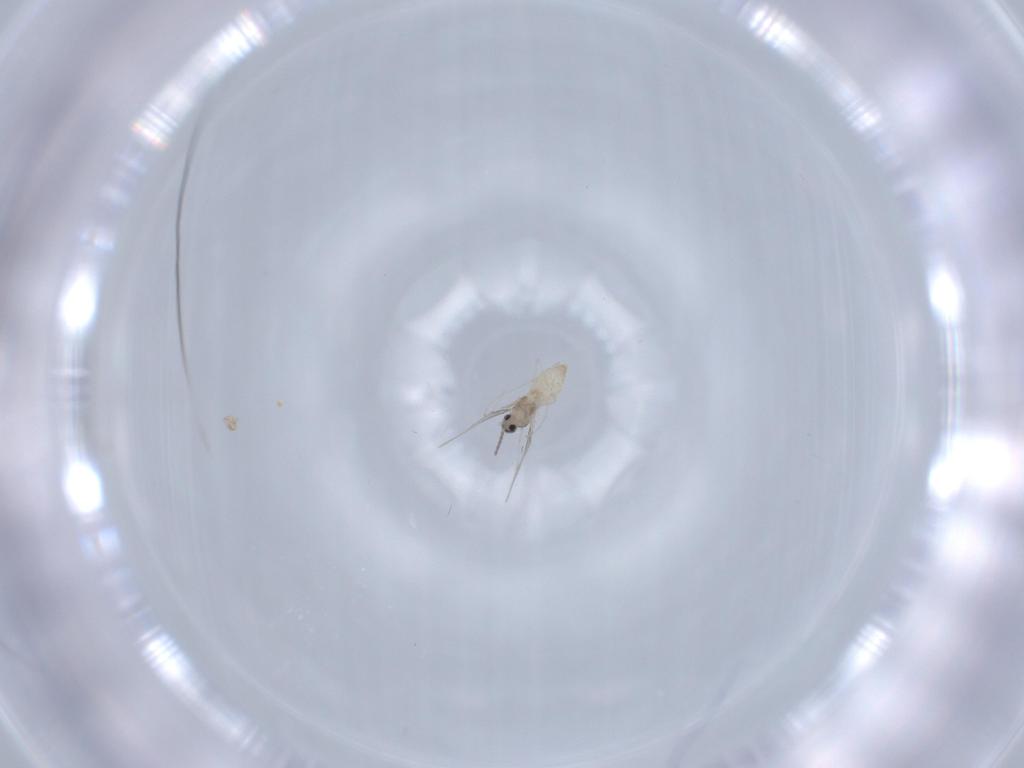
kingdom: Animalia
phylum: Arthropoda
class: Insecta
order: Diptera
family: Cecidomyiidae
